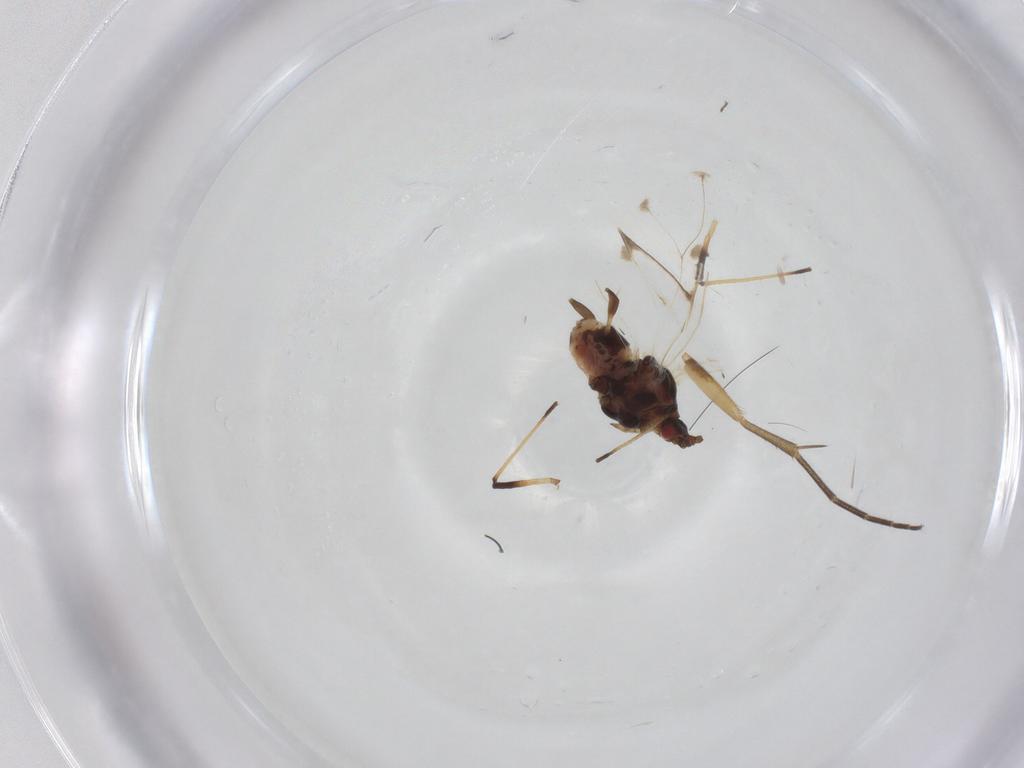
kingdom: Animalia
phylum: Arthropoda
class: Insecta
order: Hemiptera
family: Aphididae
